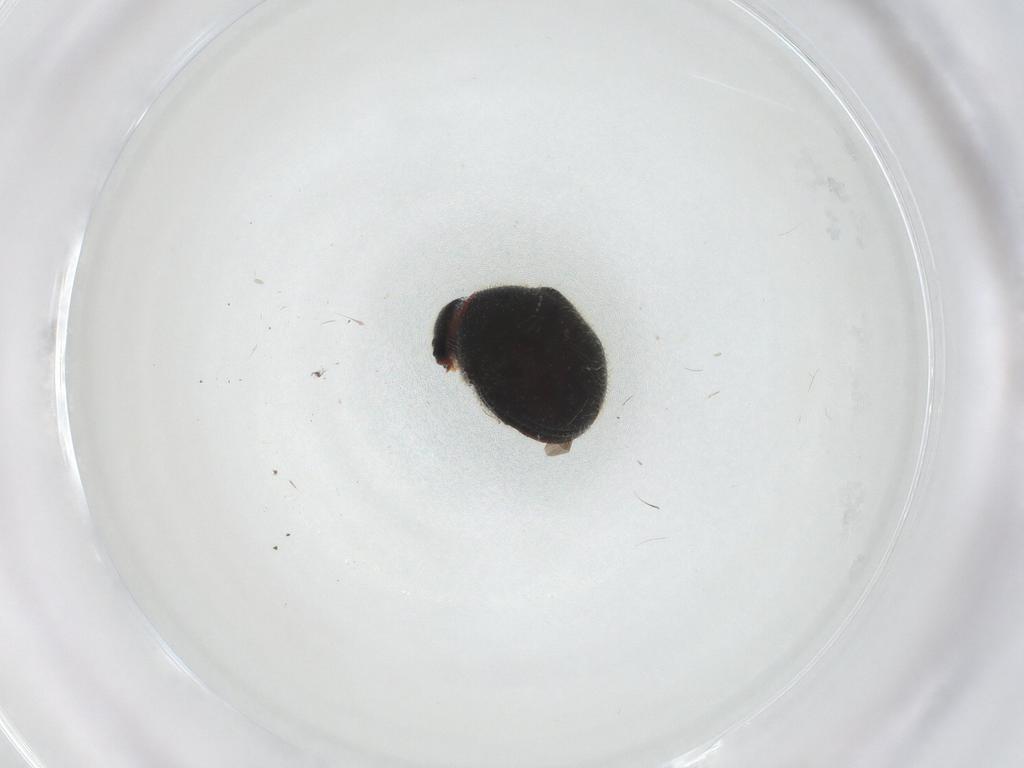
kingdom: Animalia
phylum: Arthropoda
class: Insecta
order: Coleoptera
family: Ptinidae
